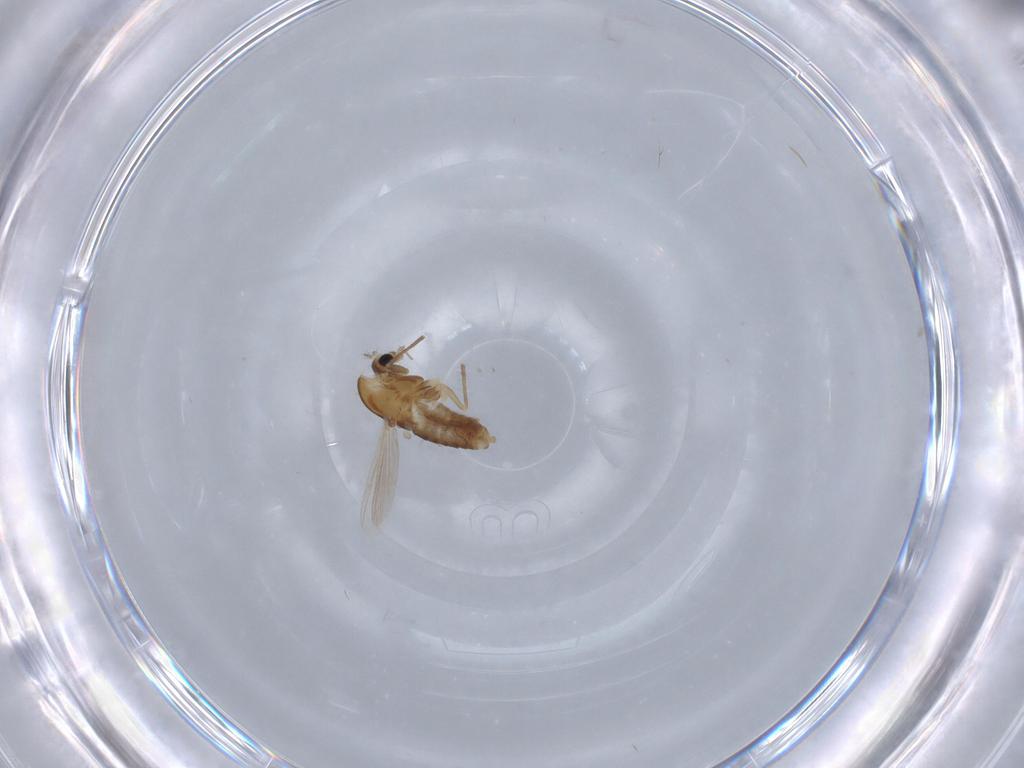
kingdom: Animalia
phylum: Arthropoda
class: Insecta
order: Diptera
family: Chironomidae
